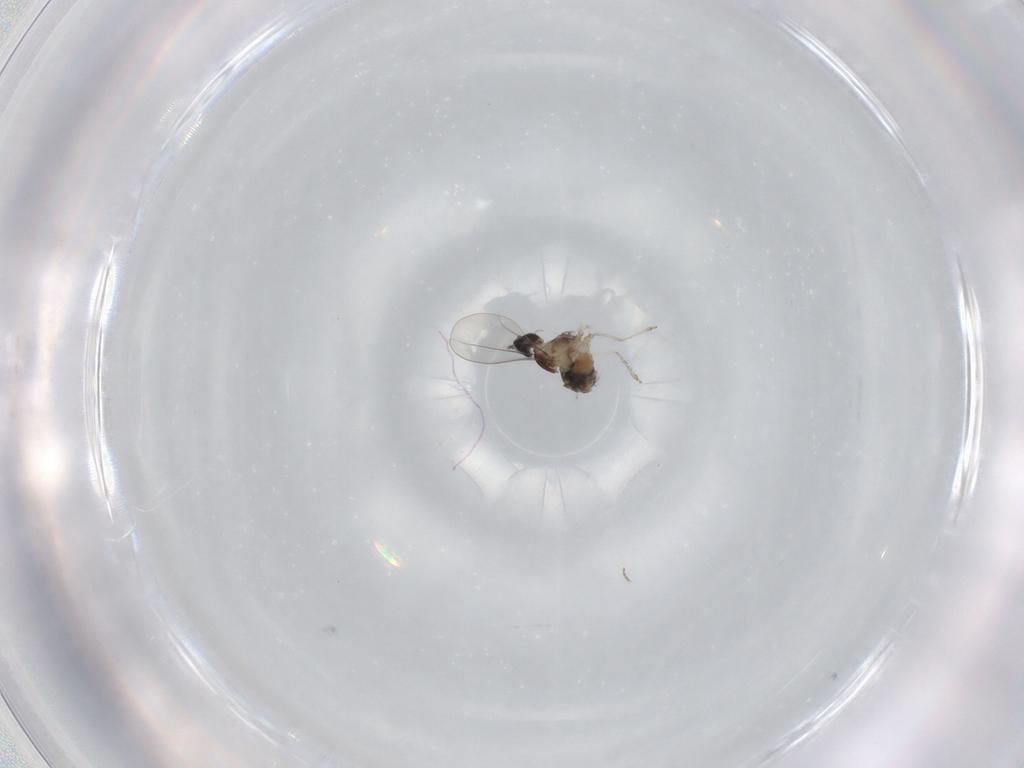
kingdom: Animalia
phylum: Arthropoda
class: Insecta
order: Diptera
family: Cecidomyiidae
